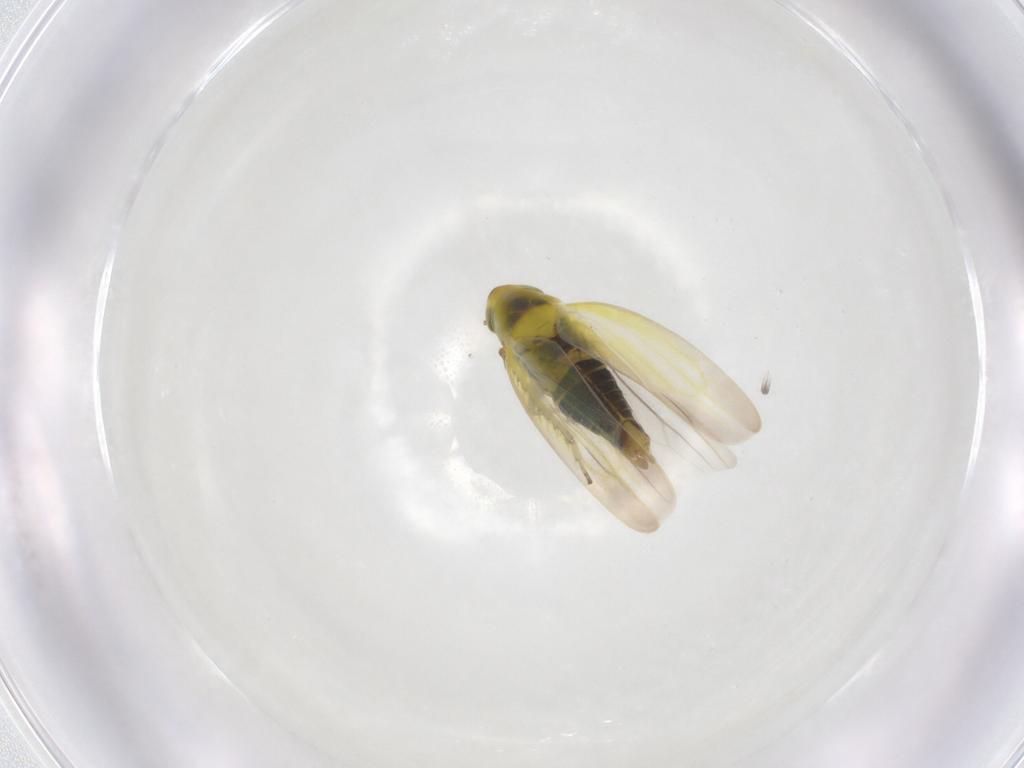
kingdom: Animalia
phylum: Arthropoda
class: Insecta
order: Hemiptera
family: Cicadellidae
